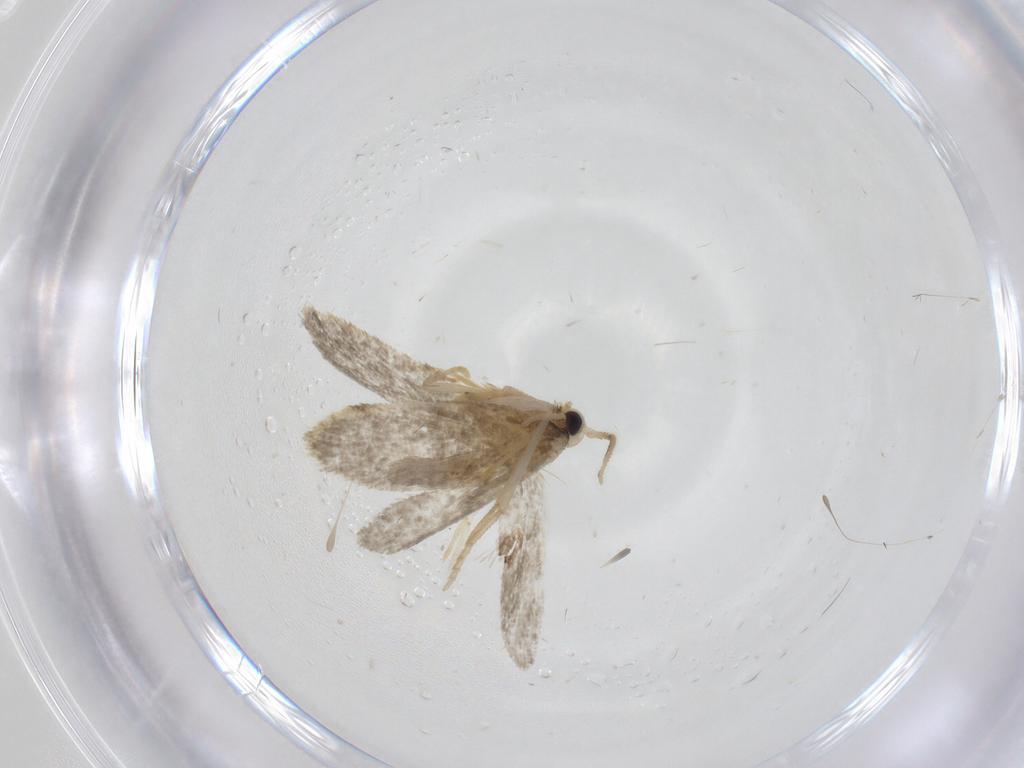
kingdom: Animalia
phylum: Arthropoda
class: Insecta
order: Lepidoptera
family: Psychidae
